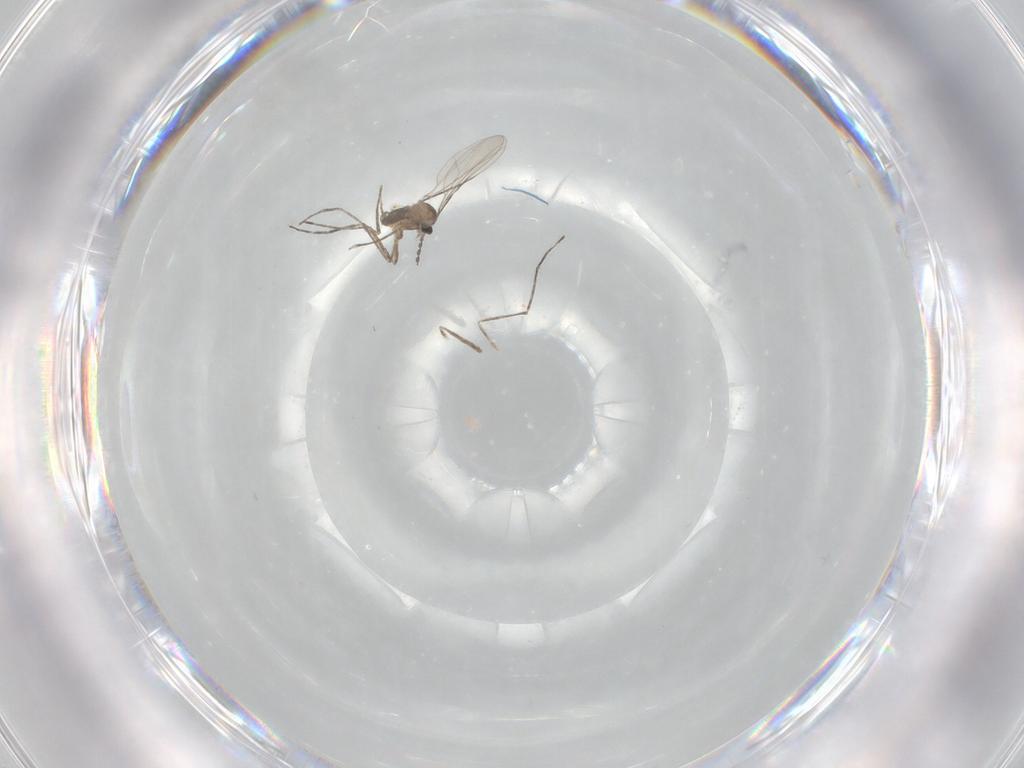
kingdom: Animalia
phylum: Arthropoda
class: Insecta
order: Diptera
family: Cecidomyiidae
